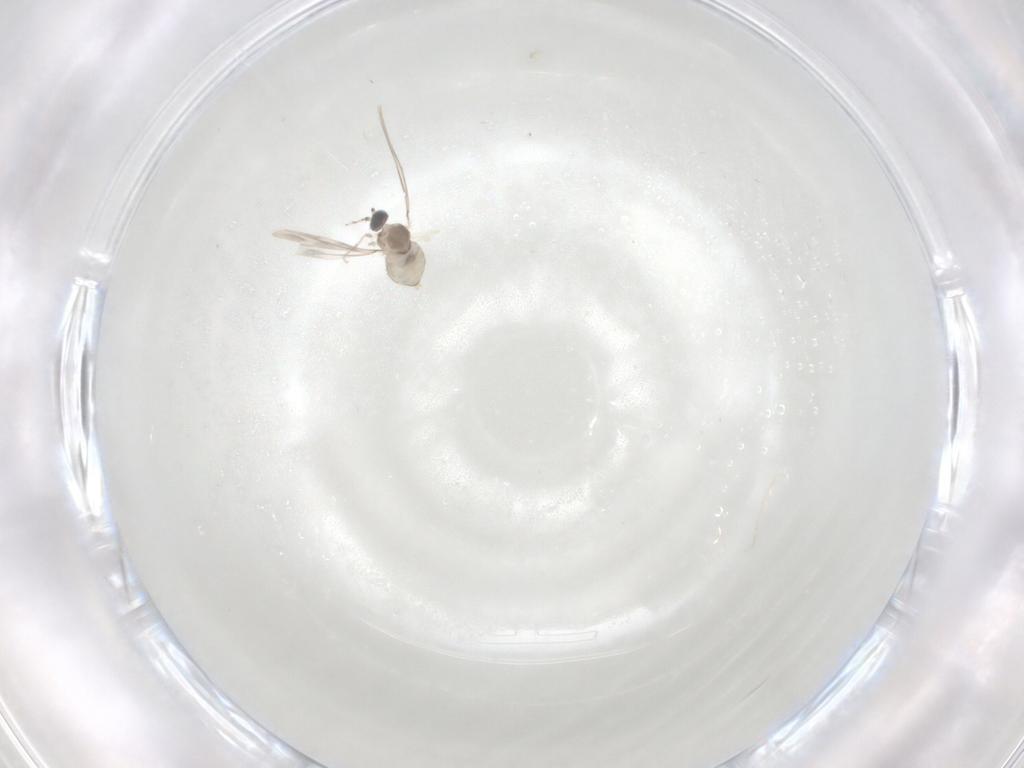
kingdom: Animalia
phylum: Arthropoda
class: Insecta
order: Diptera
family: Cecidomyiidae
